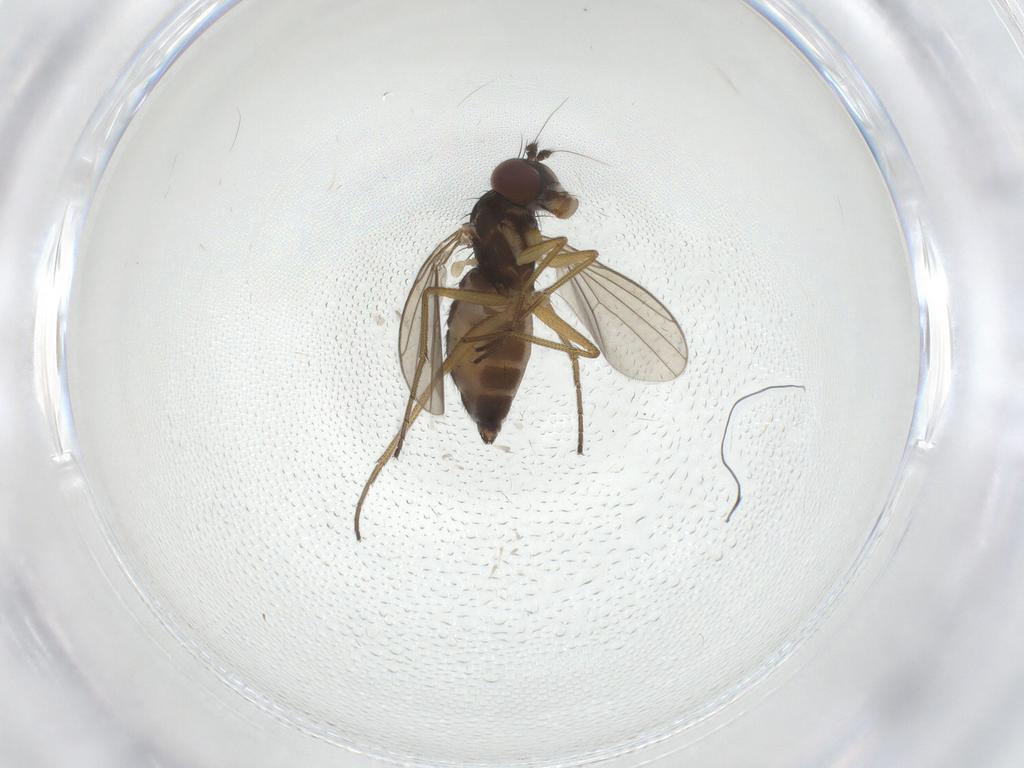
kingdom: Animalia
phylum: Arthropoda
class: Insecta
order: Diptera
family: Dolichopodidae
